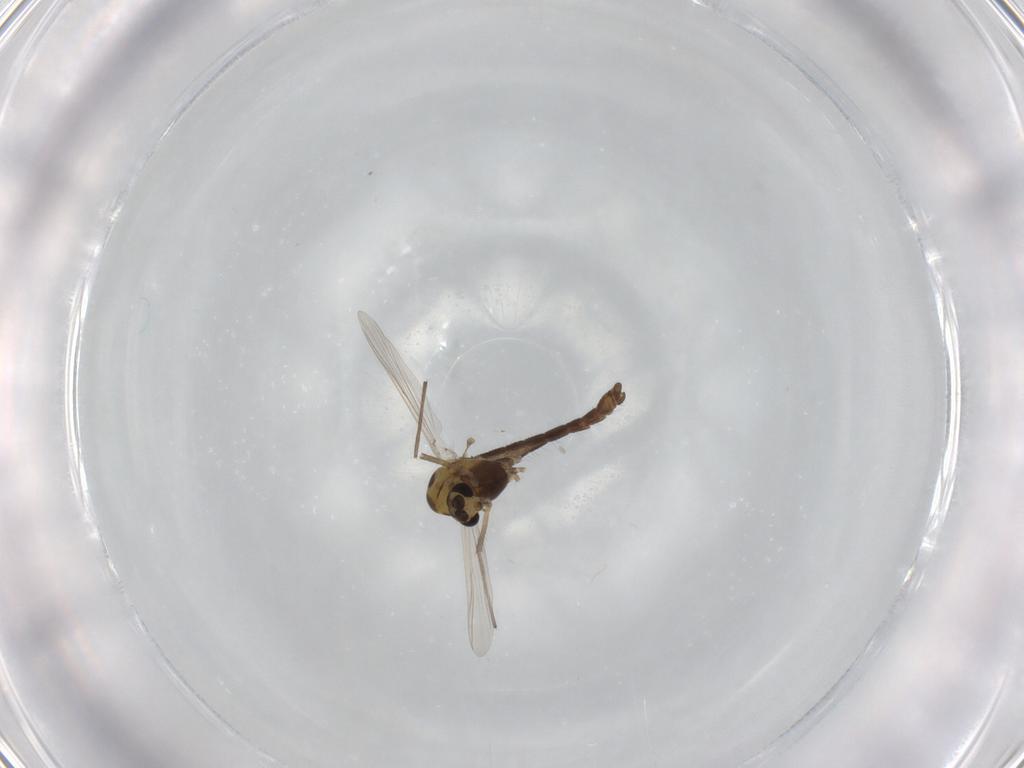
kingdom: Animalia
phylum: Arthropoda
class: Insecta
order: Diptera
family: Chironomidae
